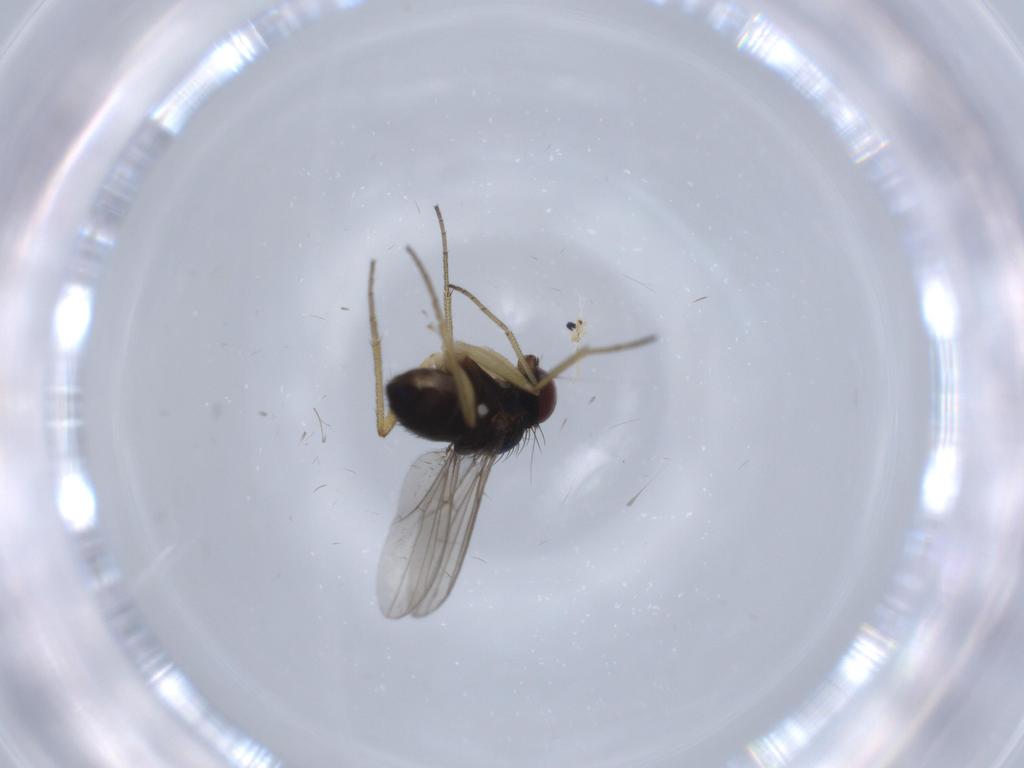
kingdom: Animalia
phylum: Arthropoda
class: Insecta
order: Diptera
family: Dolichopodidae
